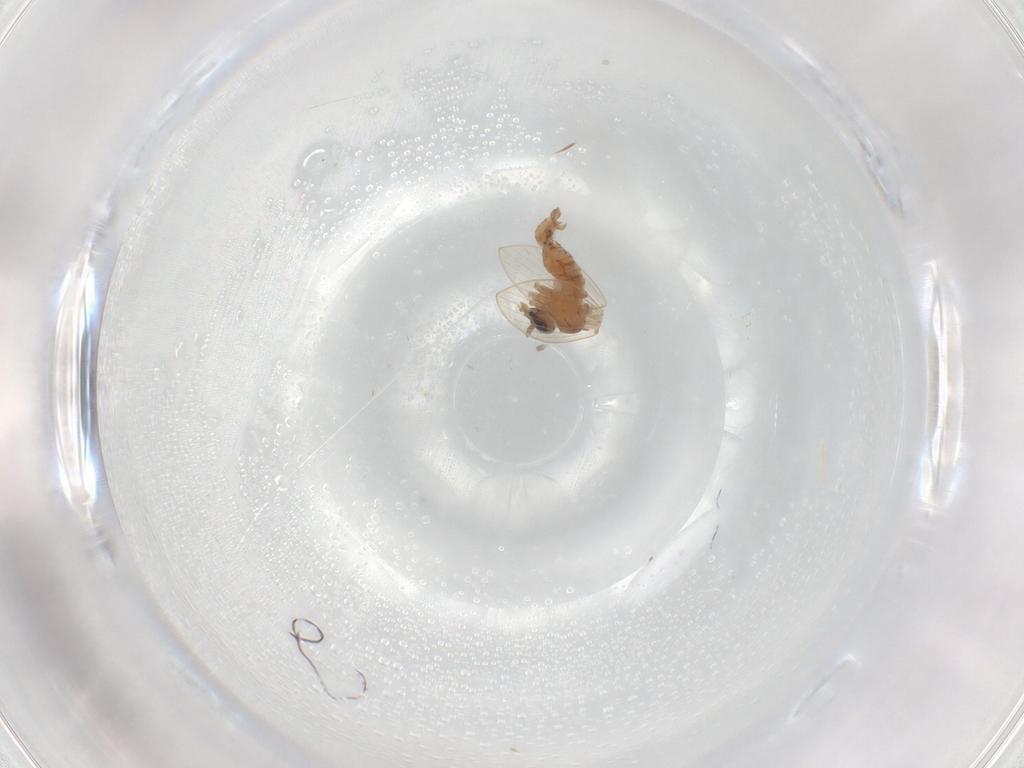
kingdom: Animalia
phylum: Arthropoda
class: Insecta
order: Diptera
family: Psychodidae
